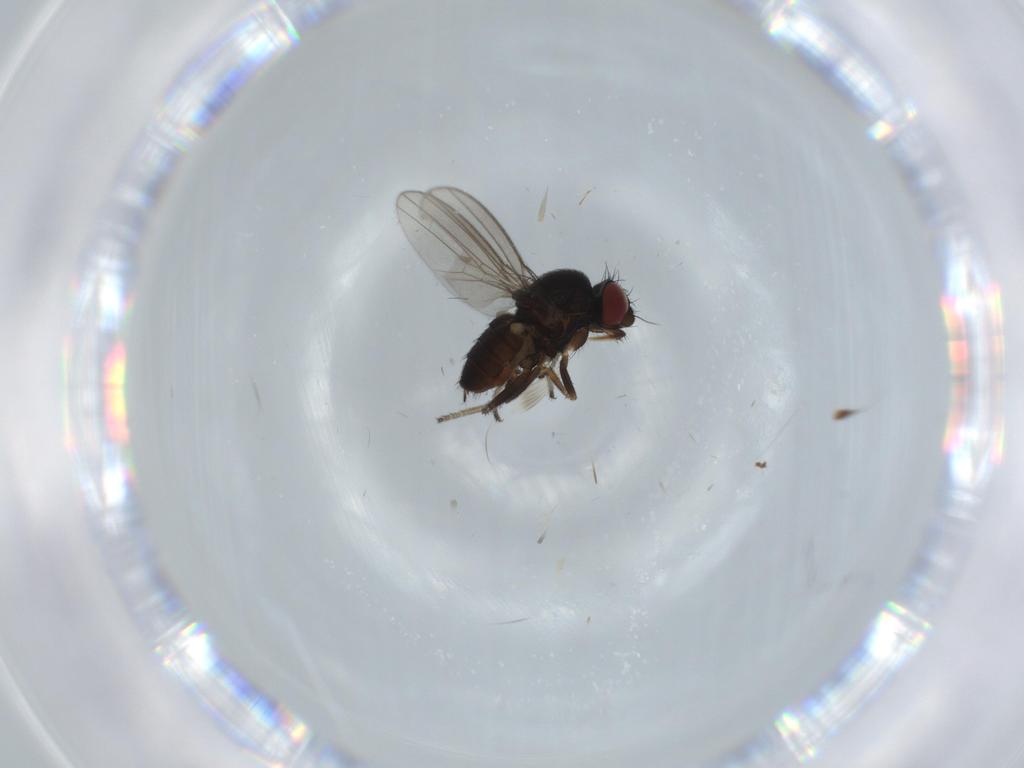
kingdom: Animalia
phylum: Arthropoda
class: Insecta
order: Diptera
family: Milichiidae
